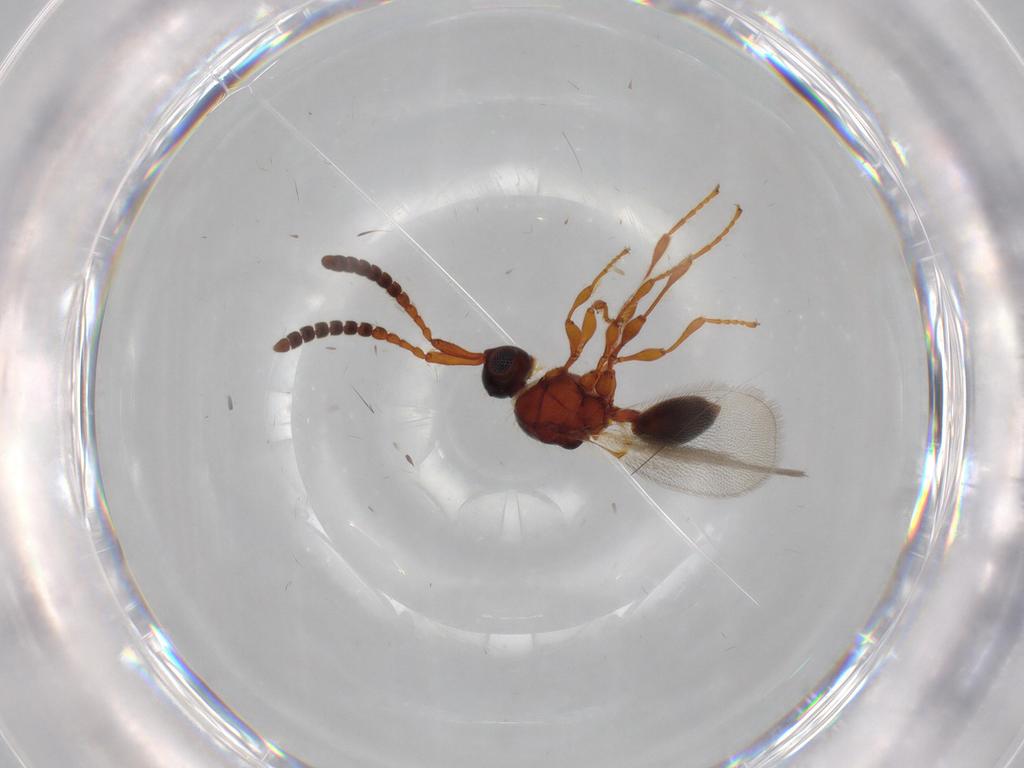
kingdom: Animalia
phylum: Arthropoda
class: Insecta
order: Hymenoptera
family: Diapriidae
